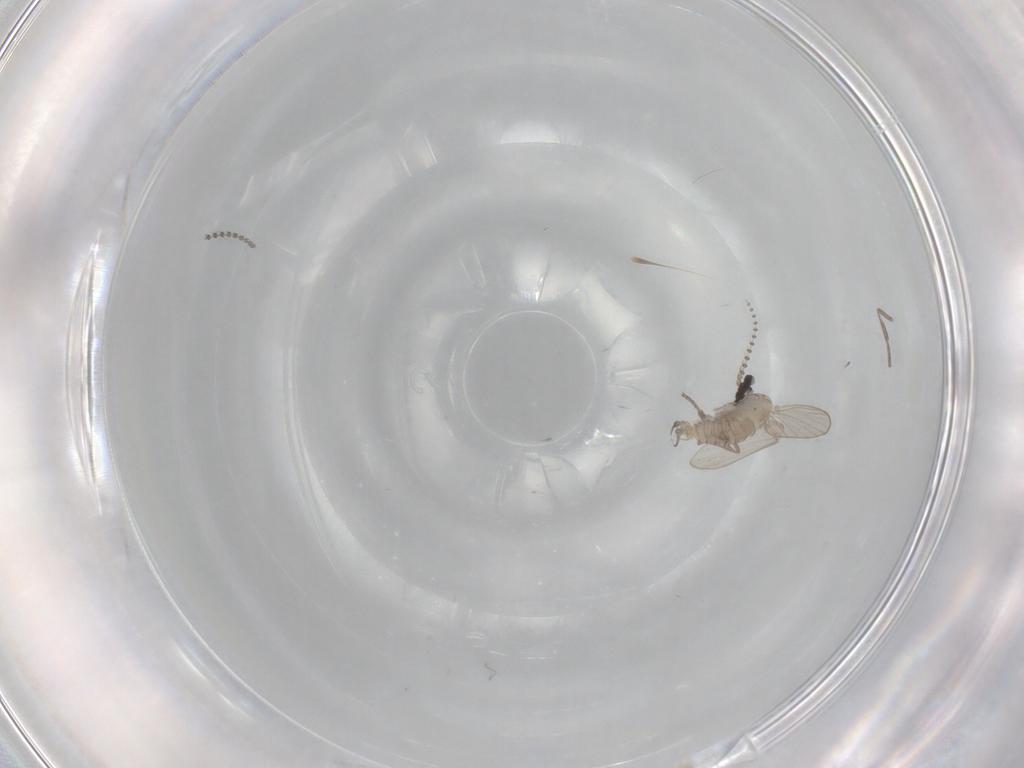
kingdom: Animalia
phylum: Arthropoda
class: Insecta
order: Diptera
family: Psychodidae
